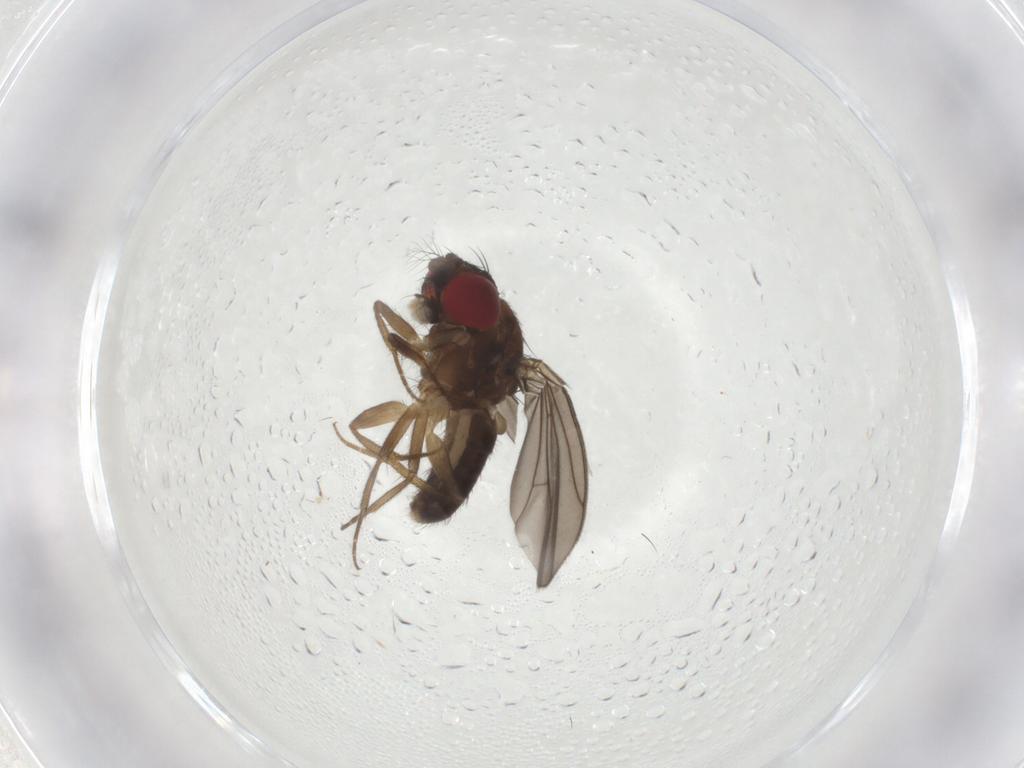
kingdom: Animalia
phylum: Arthropoda
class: Insecta
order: Diptera
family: Drosophilidae
